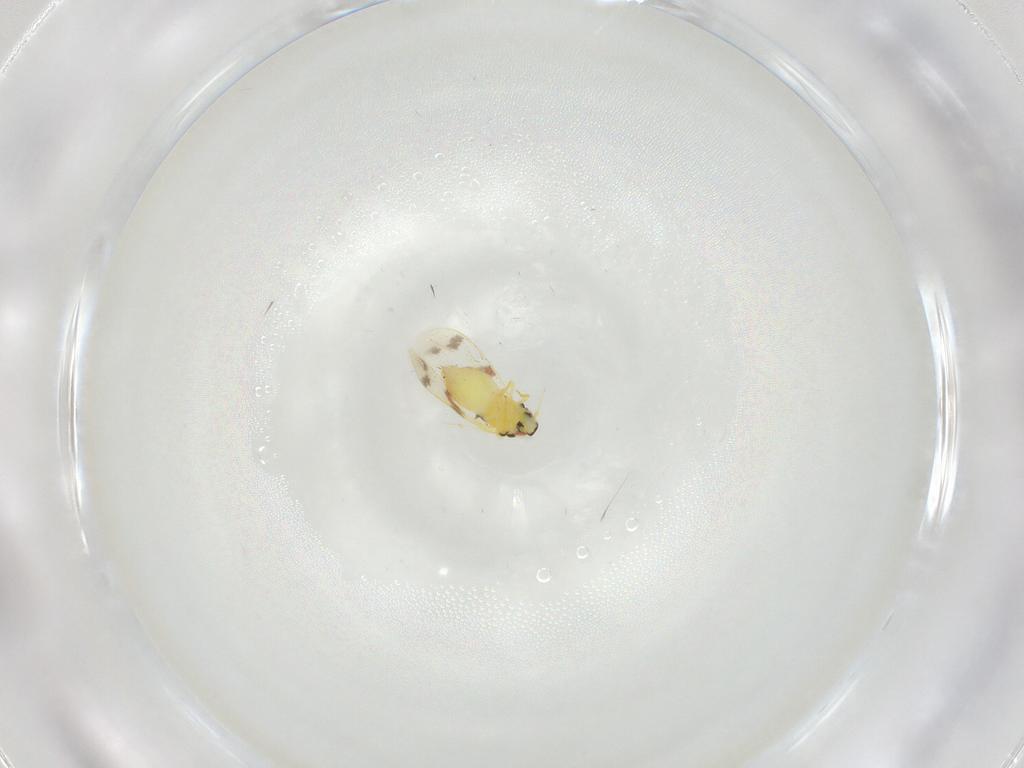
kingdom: Animalia
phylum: Arthropoda
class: Insecta
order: Hemiptera
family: Aleyrodidae
